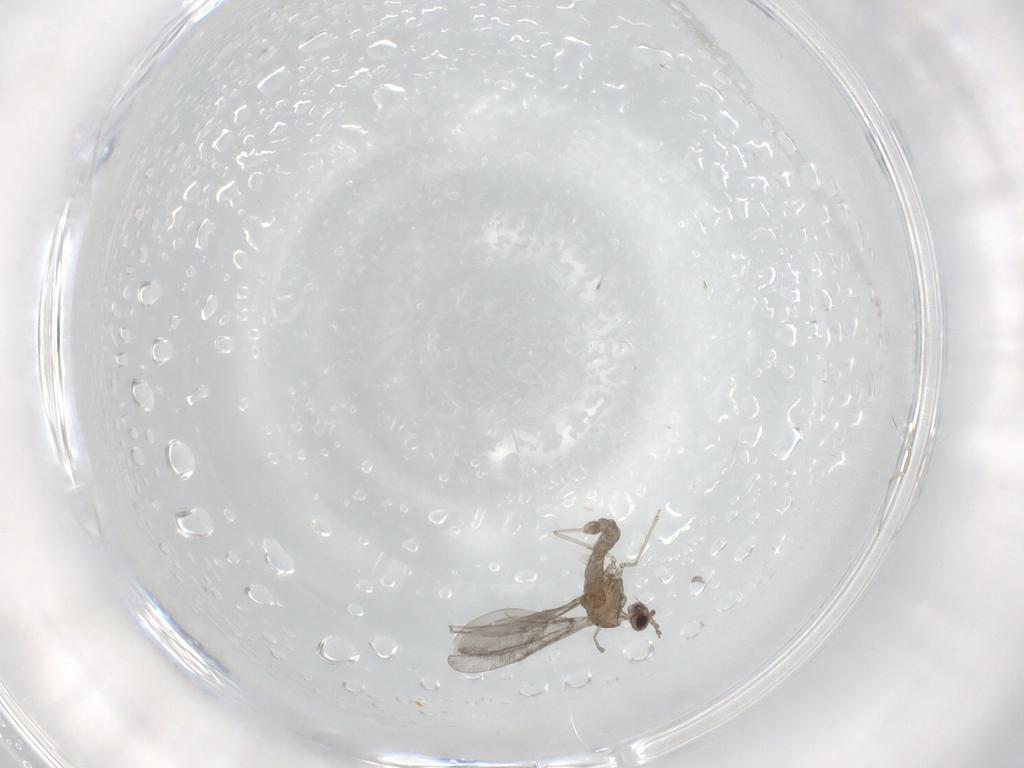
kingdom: Animalia
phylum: Arthropoda
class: Insecta
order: Diptera
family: Cecidomyiidae
